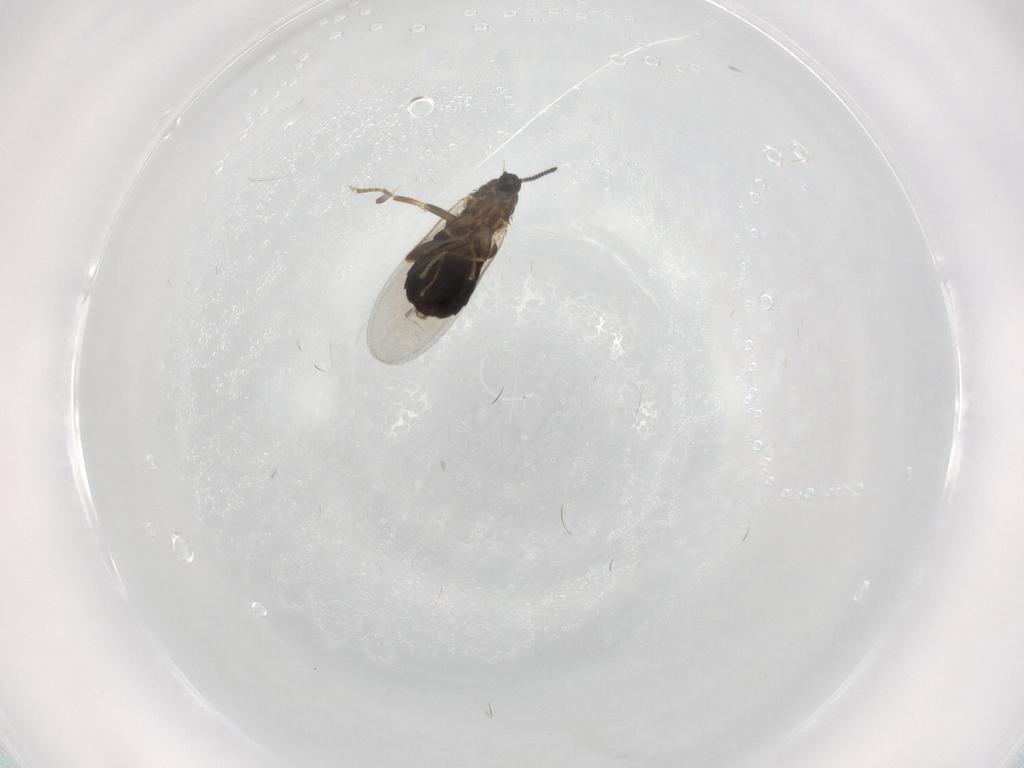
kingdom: Animalia
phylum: Arthropoda
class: Insecta
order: Diptera
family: Scatopsidae
